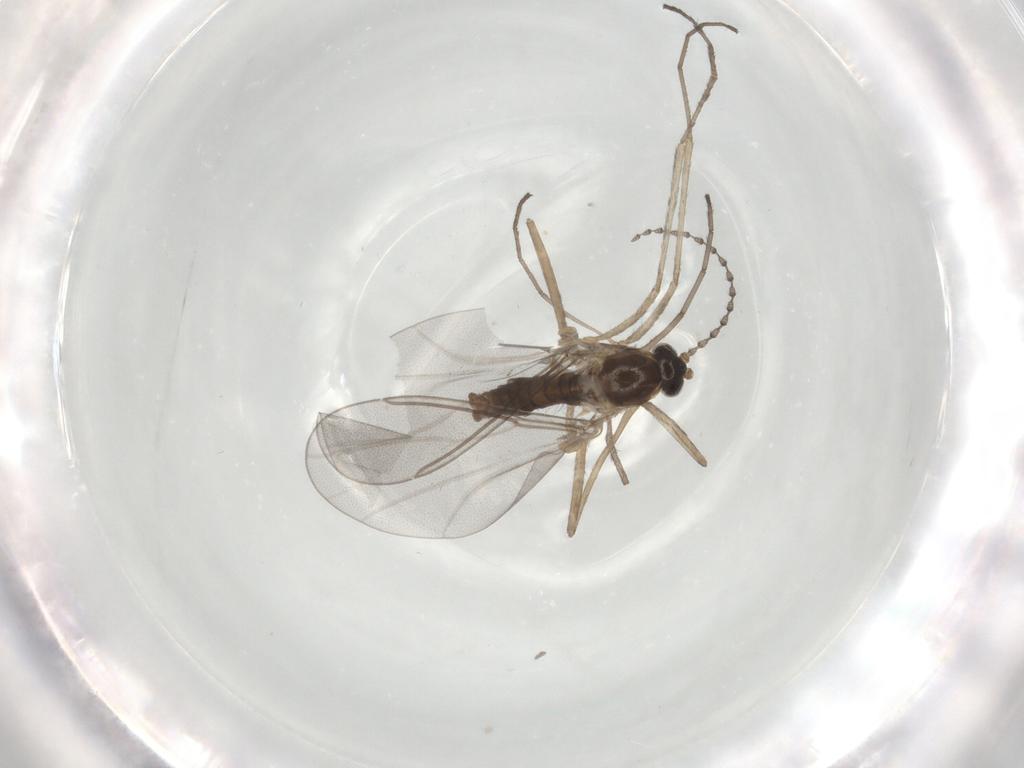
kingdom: Animalia
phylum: Arthropoda
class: Insecta
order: Diptera
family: Cecidomyiidae
